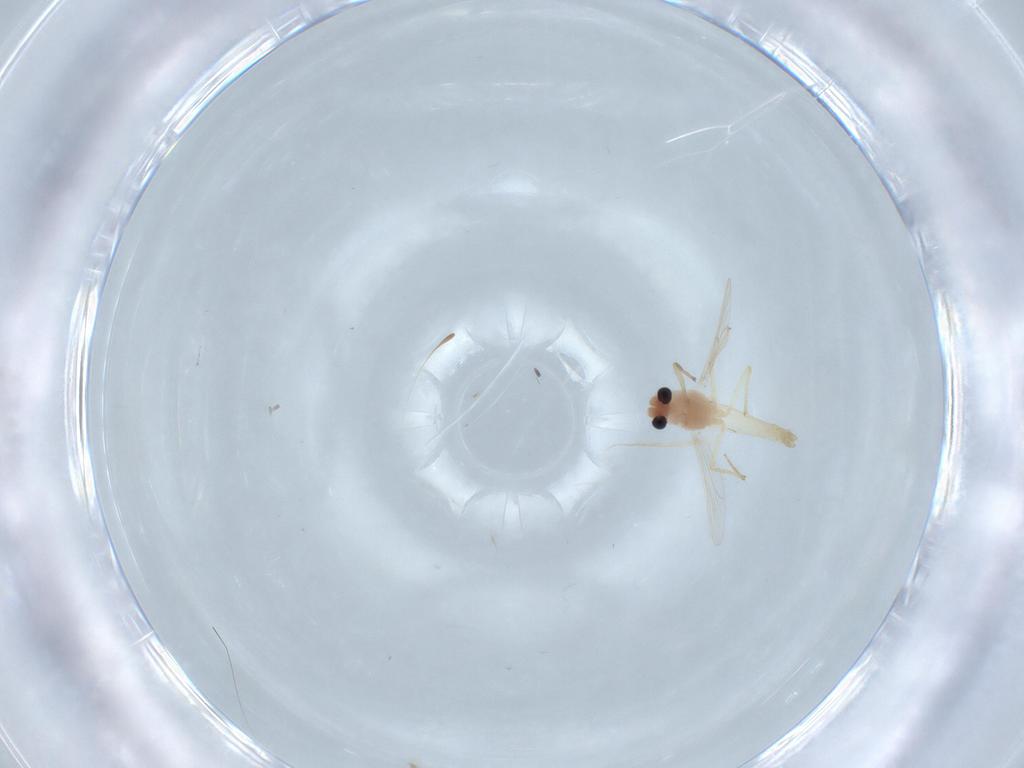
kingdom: Animalia
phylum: Arthropoda
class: Insecta
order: Diptera
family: Chironomidae
